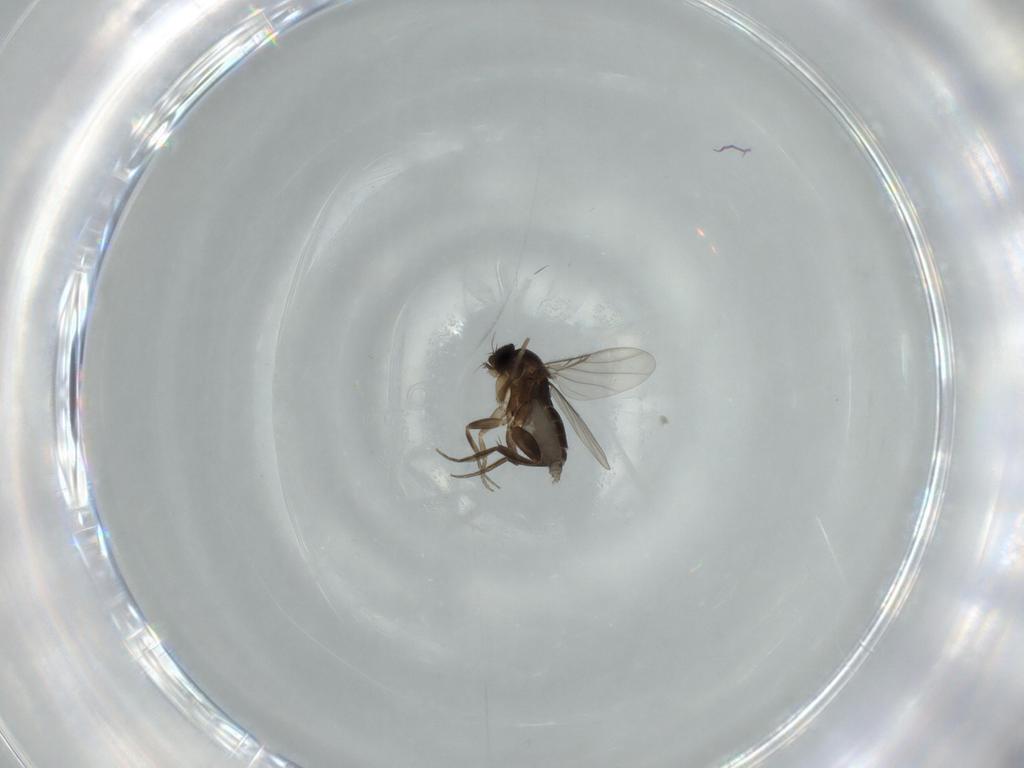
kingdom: Animalia
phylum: Arthropoda
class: Insecta
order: Diptera
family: Phoridae
